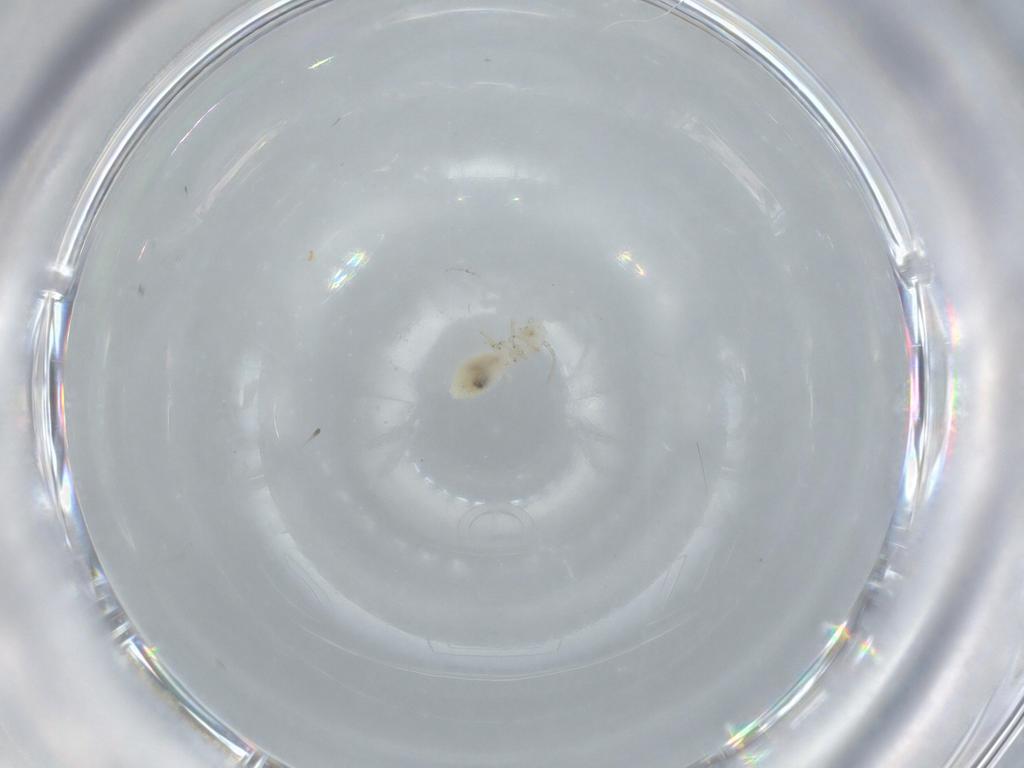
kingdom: Animalia
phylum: Arthropoda
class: Insecta
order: Psocodea
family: Caeciliusidae
